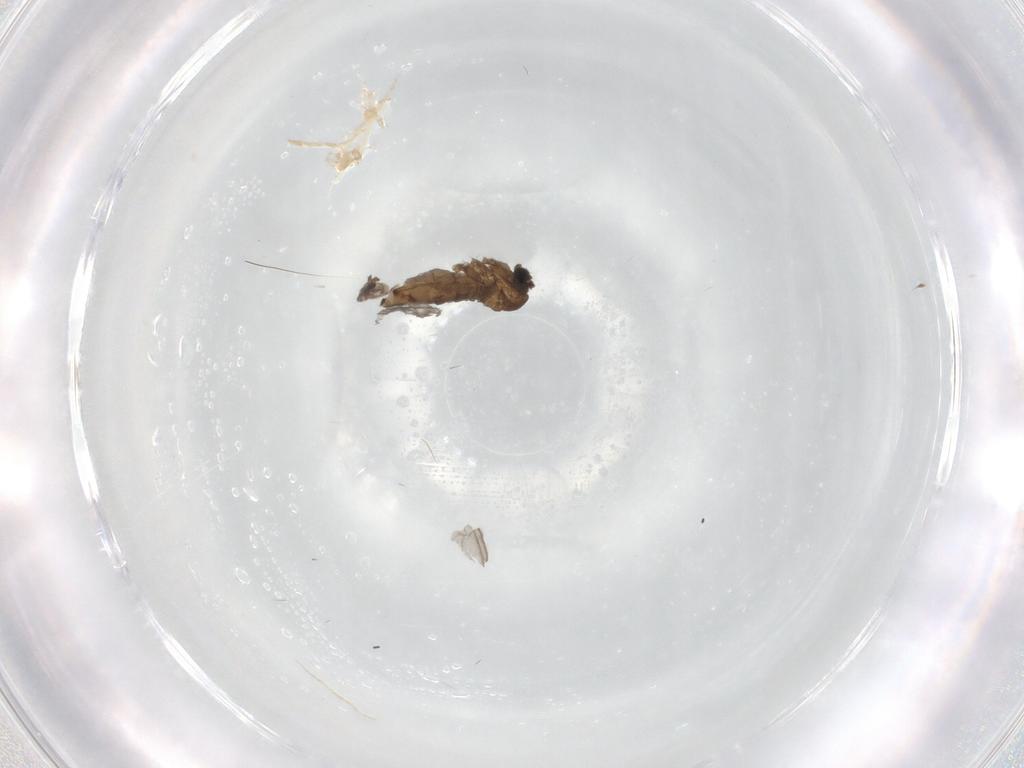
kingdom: Animalia
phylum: Arthropoda
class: Insecta
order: Diptera
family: Sciaridae
